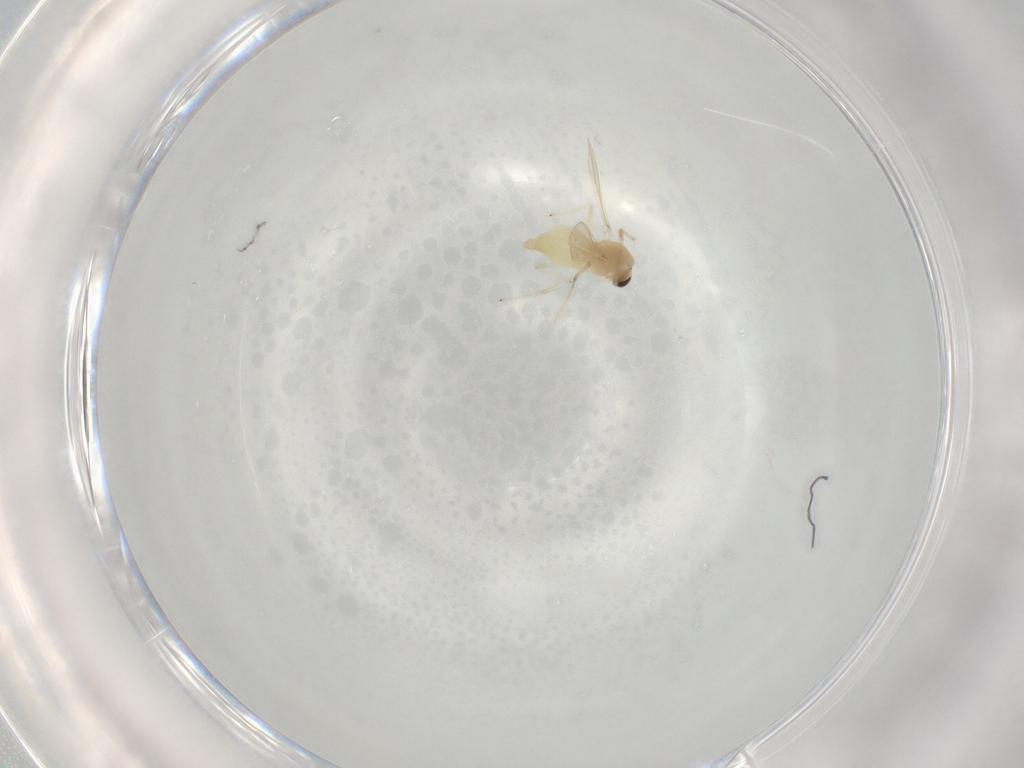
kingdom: Animalia
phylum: Arthropoda
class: Insecta
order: Diptera
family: Chironomidae
